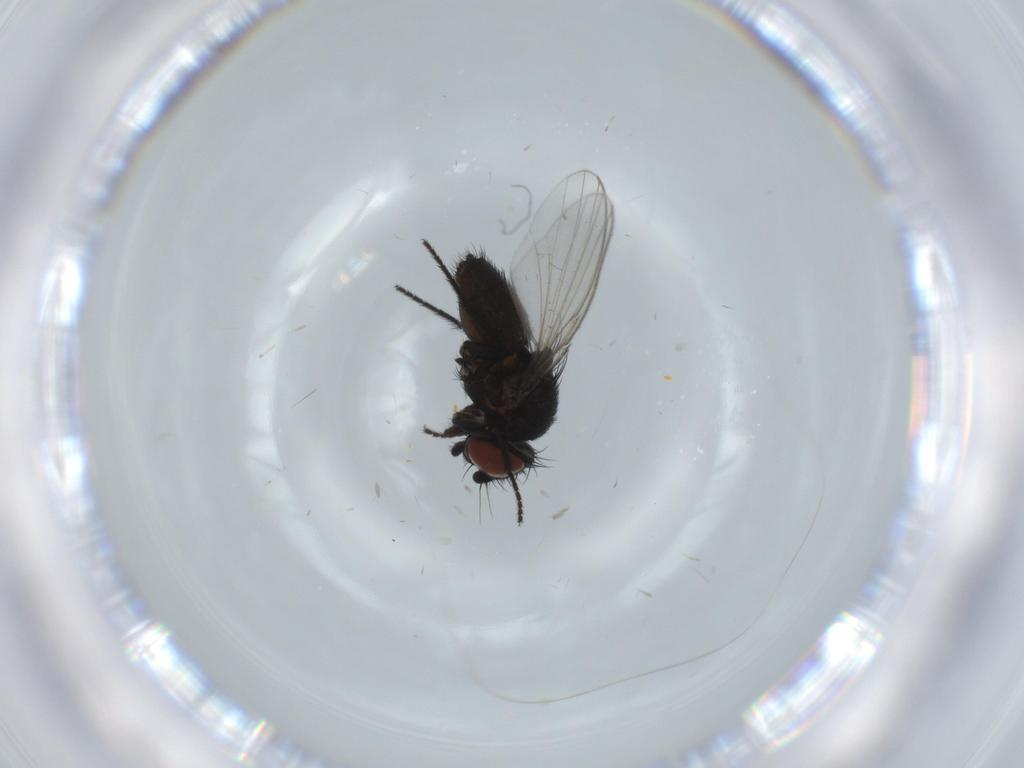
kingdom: Animalia
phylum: Arthropoda
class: Insecta
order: Diptera
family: Milichiidae
